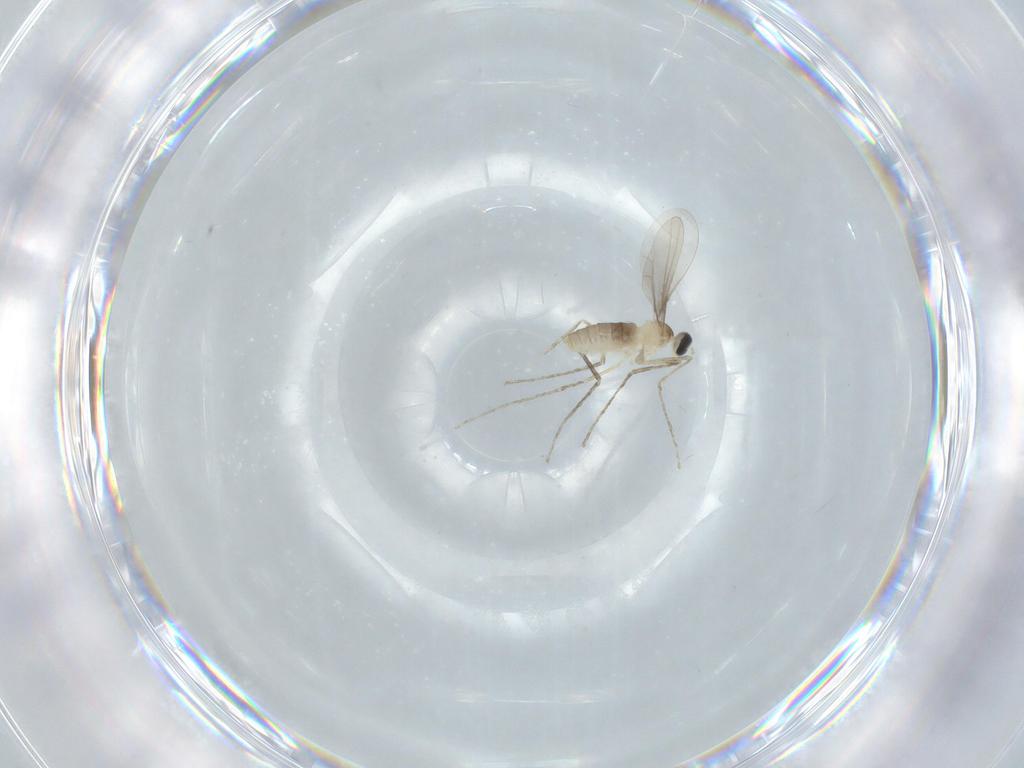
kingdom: Animalia
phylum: Arthropoda
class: Insecta
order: Diptera
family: Cecidomyiidae
